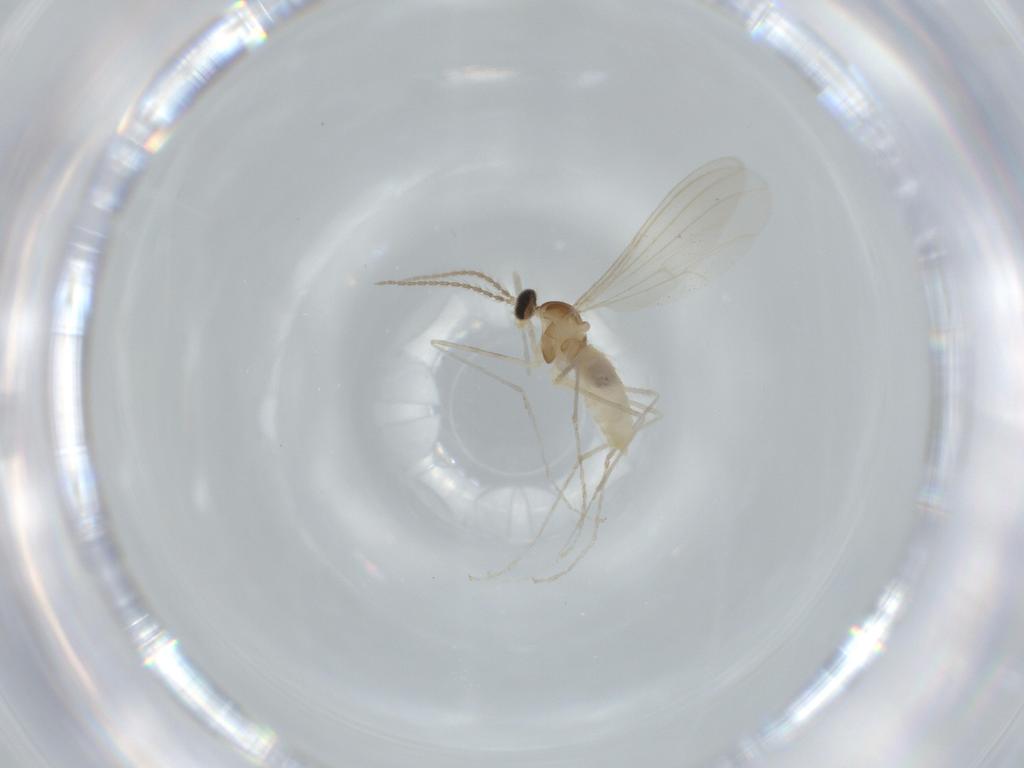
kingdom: Animalia
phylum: Arthropoda
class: Insecta
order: Diptera
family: Cecidomyiidae
